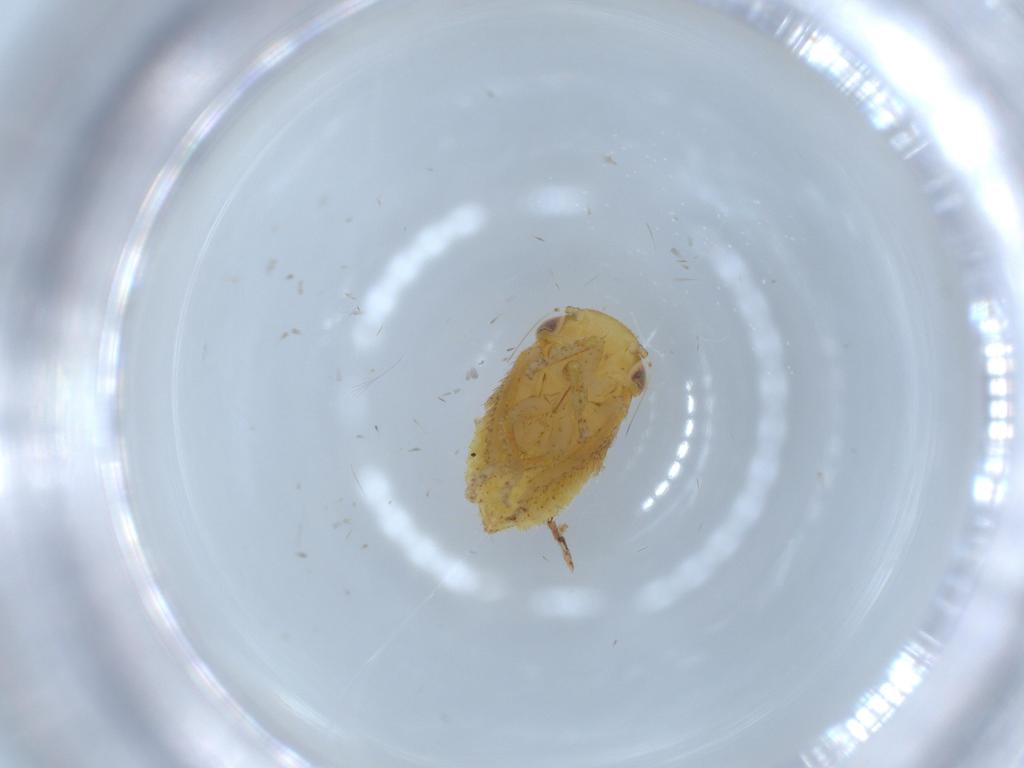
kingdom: Animalia
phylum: Arthropoda
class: Insecta
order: Hemiptera
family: Cicadellidae
